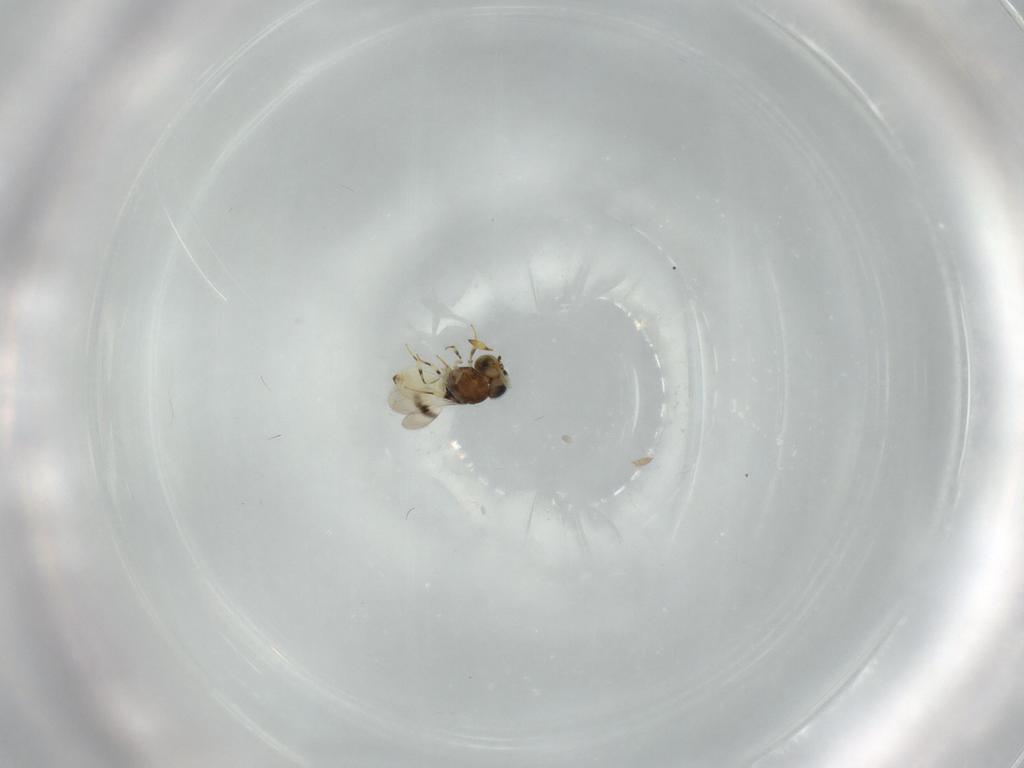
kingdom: Animalia
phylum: Arthropoda
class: Insecta
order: Hymenoptera
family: Scelionidae
